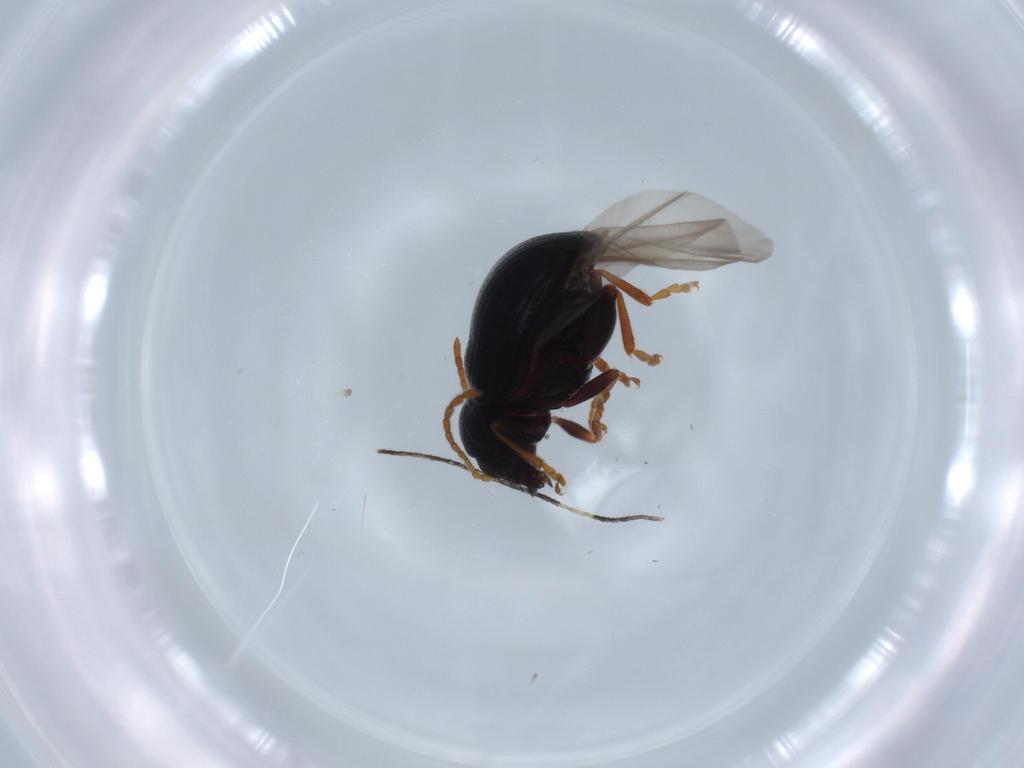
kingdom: Animalia
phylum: Arthropoda
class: Insecta
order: Coleoptera
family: Chrysomelidae
